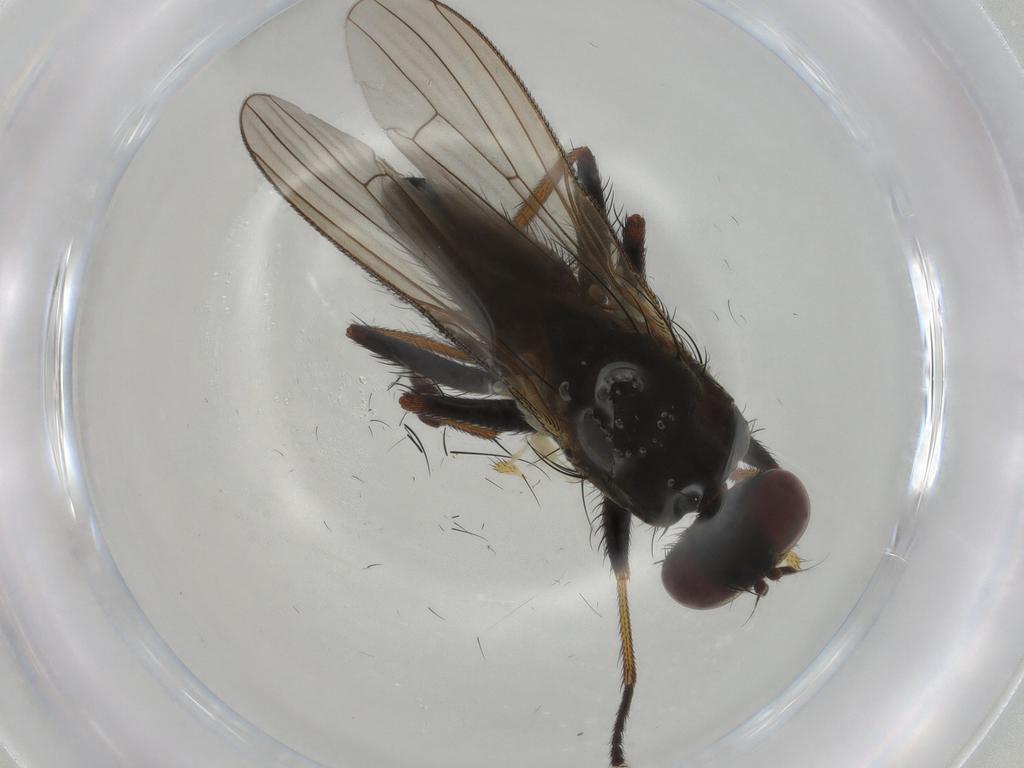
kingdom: Animalia
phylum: Arthropoda
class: Insecta
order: Diptera
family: Muscidae
